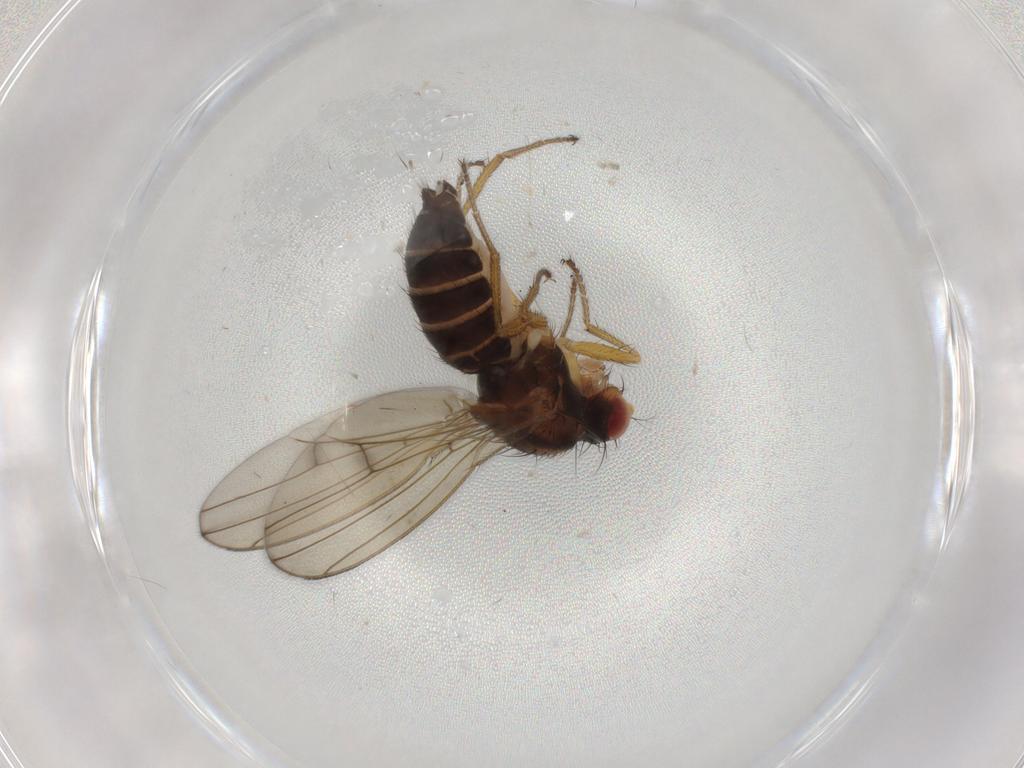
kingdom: Animalia
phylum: Arthropoda
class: Insecta
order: Diptera
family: Drosophilidae
